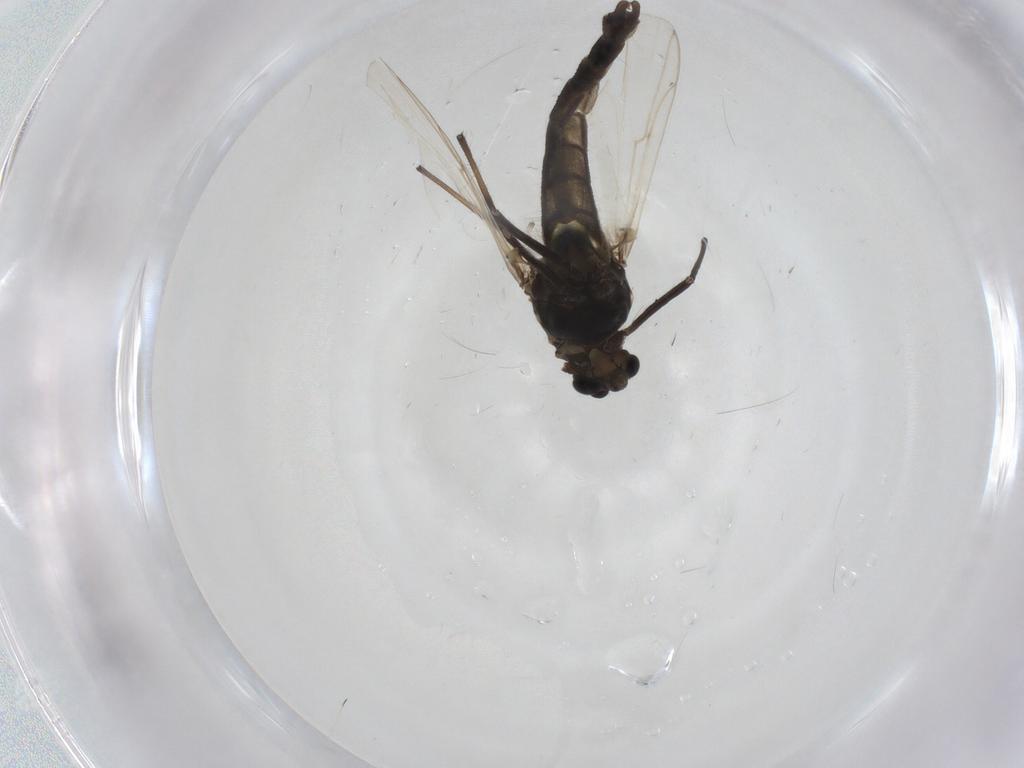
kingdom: Animalia
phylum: Arthropoda
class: Insecta
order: Diptera
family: Chironomidae
